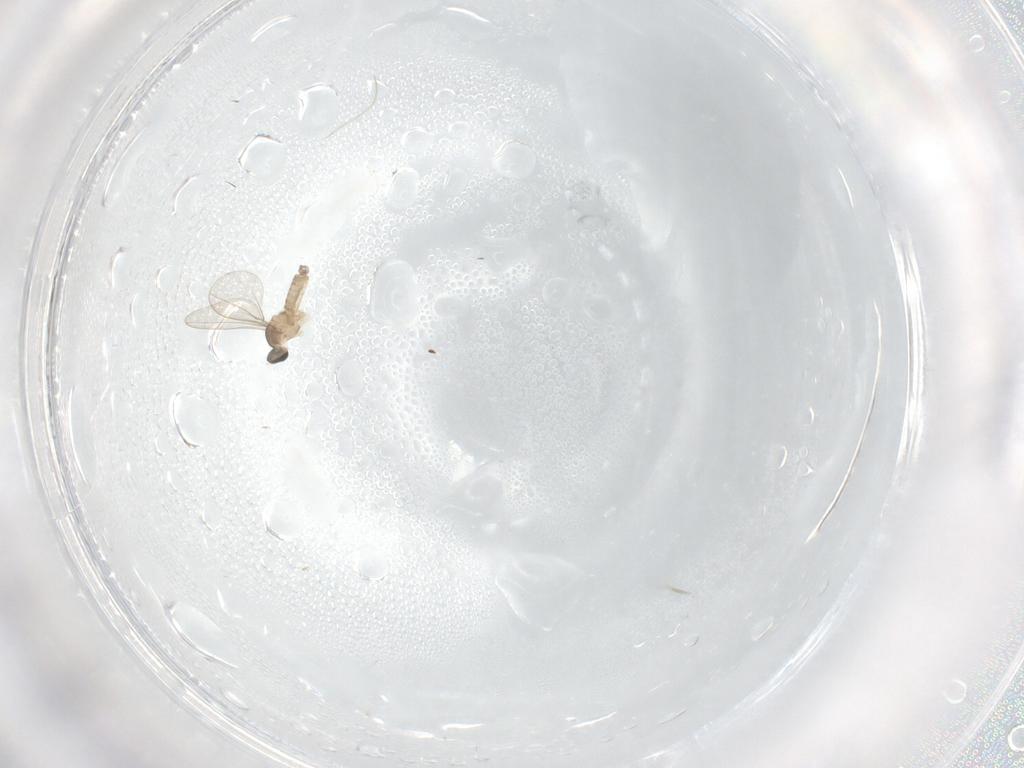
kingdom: Animalia
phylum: Arthropoda
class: Insecta
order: Diptera
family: Cecidomyiidae
